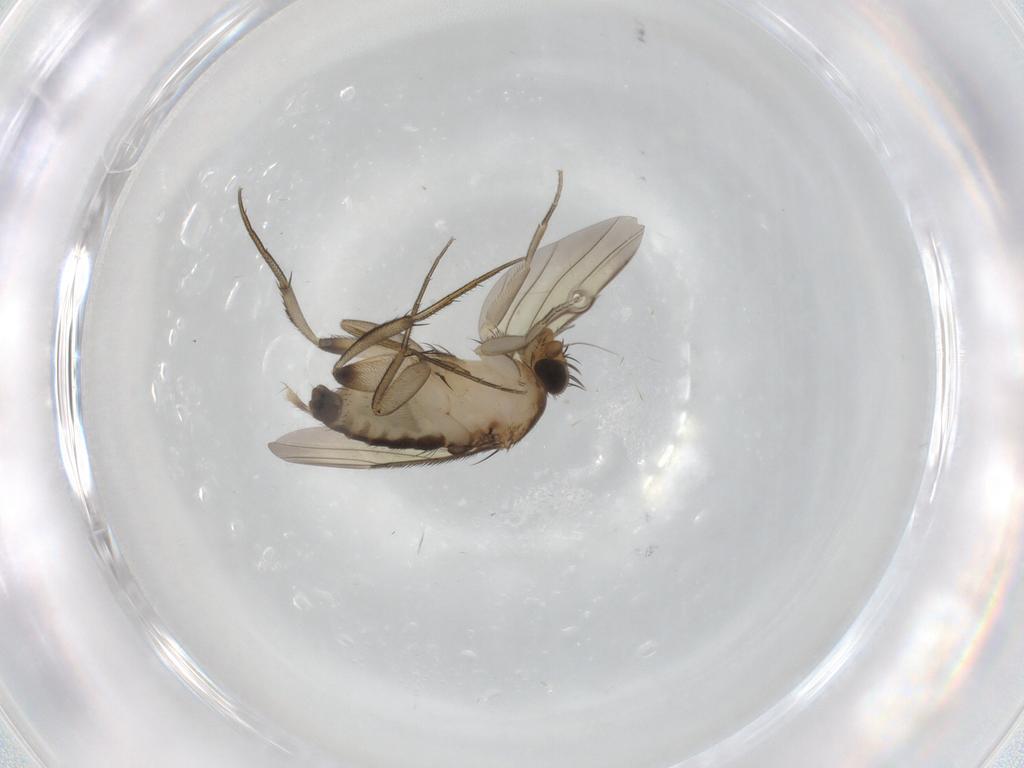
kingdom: Animalia
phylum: Arthropoda
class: Insecta
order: Diptera
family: Phoridae
